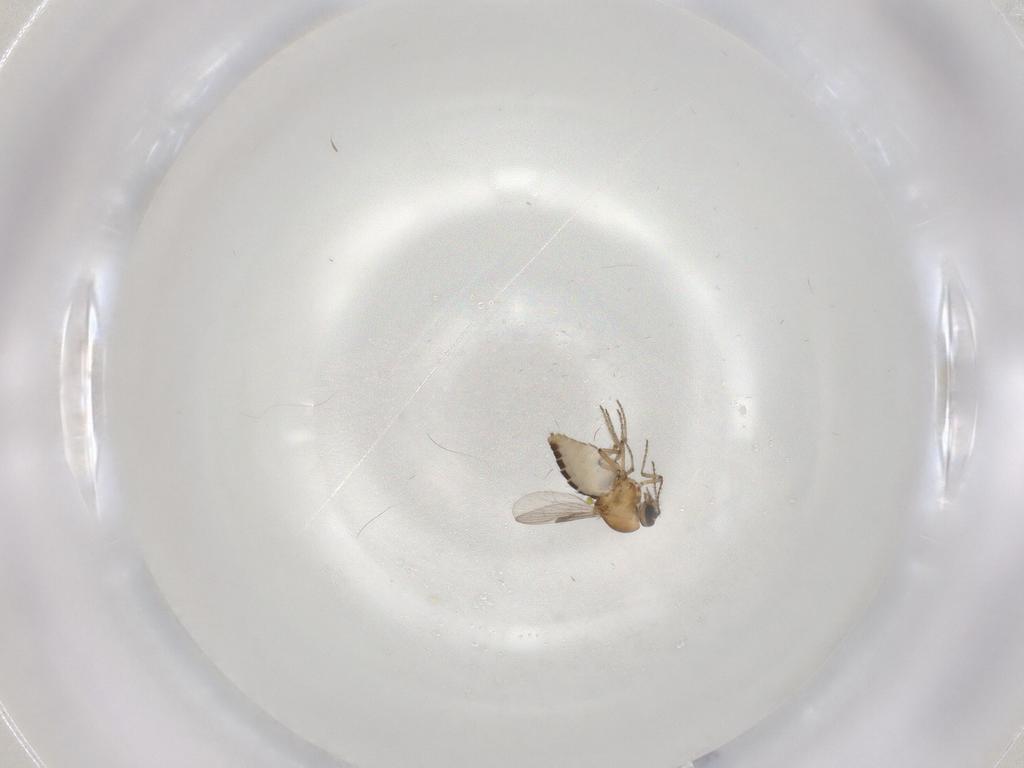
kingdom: Animalia
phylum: Arthropoda
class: Insecta
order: Diptera
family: Ceratopogonidae
